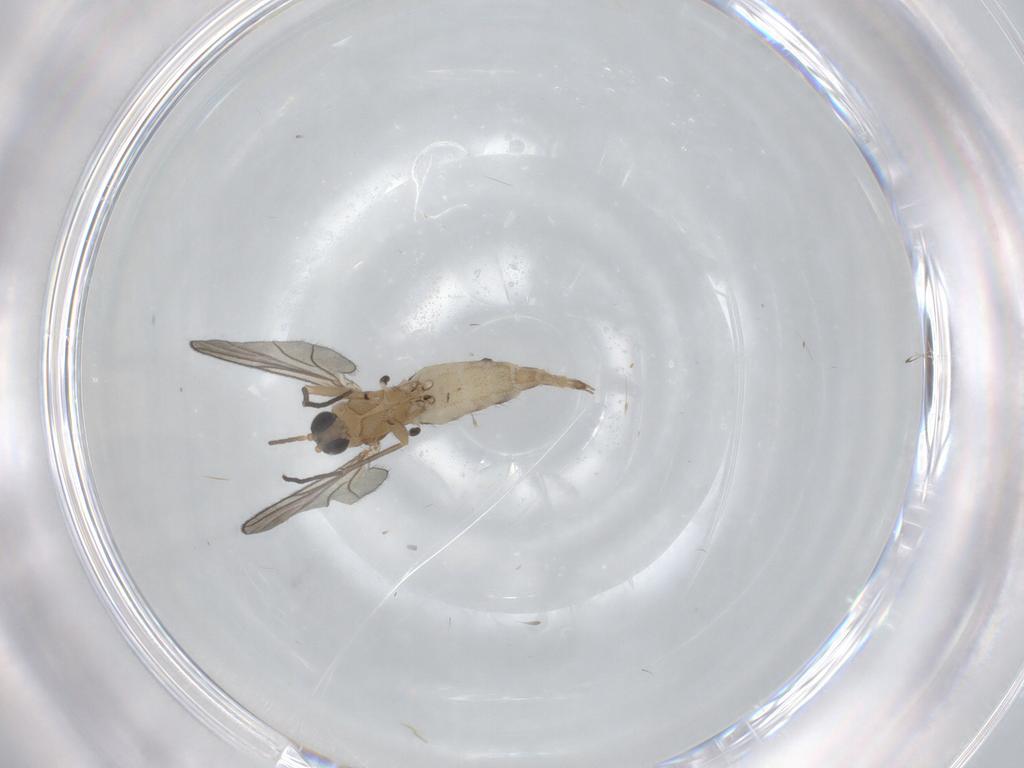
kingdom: Animalia
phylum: Arthropoda
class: Insecta
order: Diptera
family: Sciaridae
